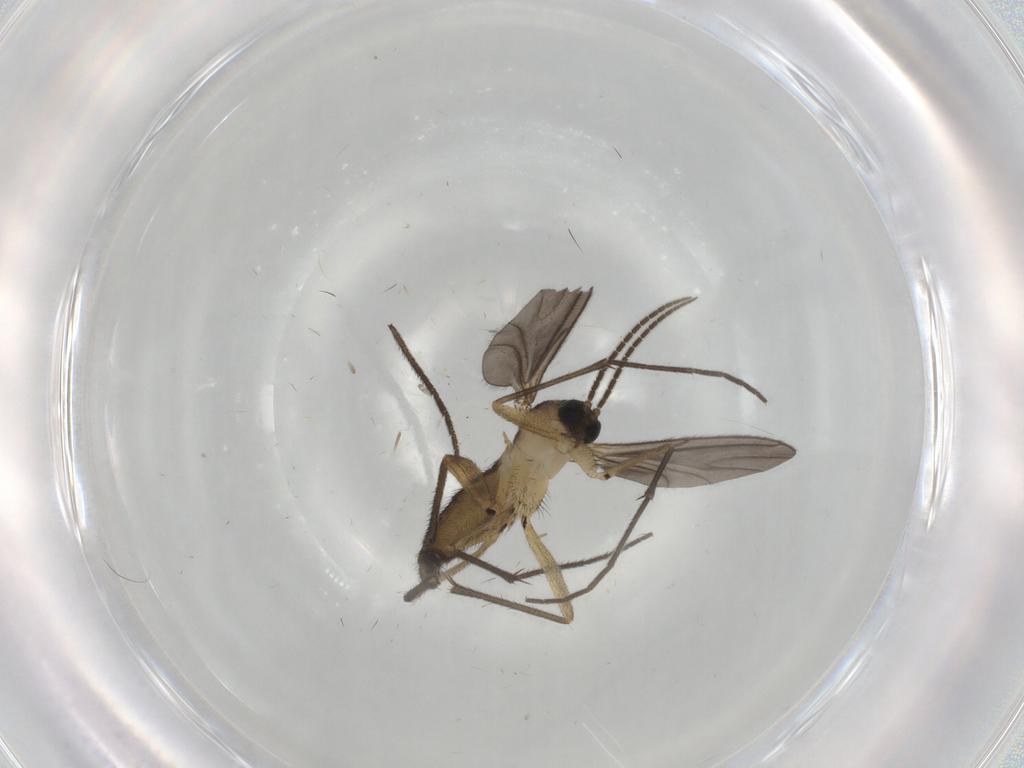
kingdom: Animalia
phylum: Arthropoda
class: Insecta
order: Diptera
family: Sciaridae
